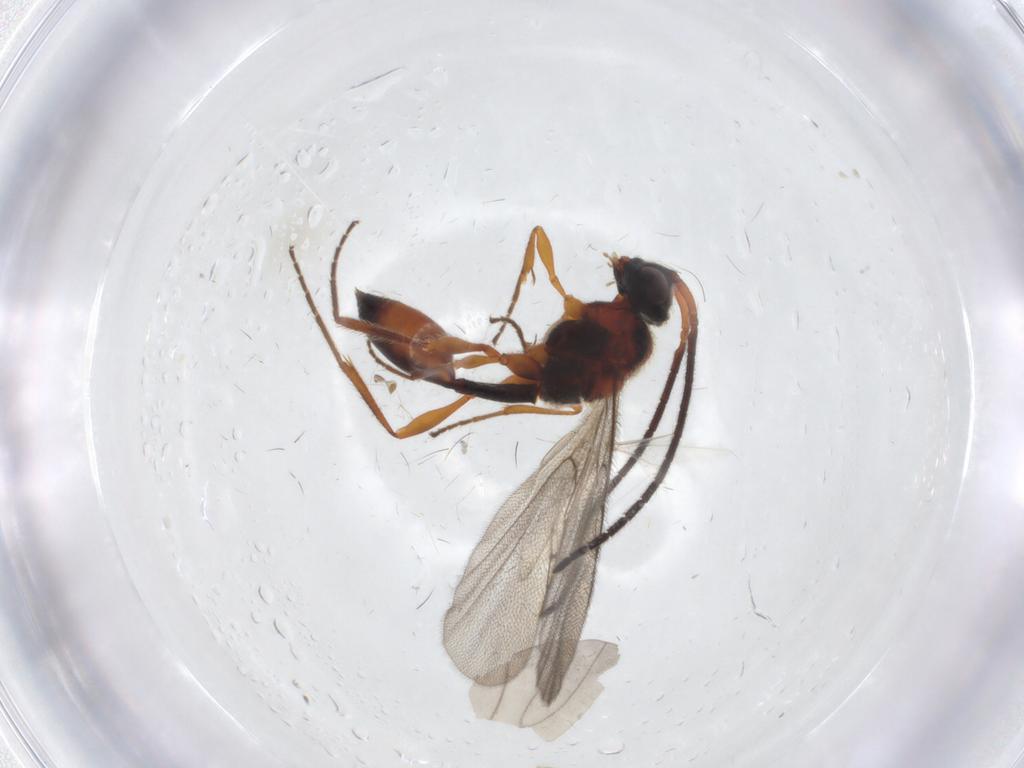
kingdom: Animalia
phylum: Arthropoda
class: Insecta
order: Hymenoptera
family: Diapriidae
